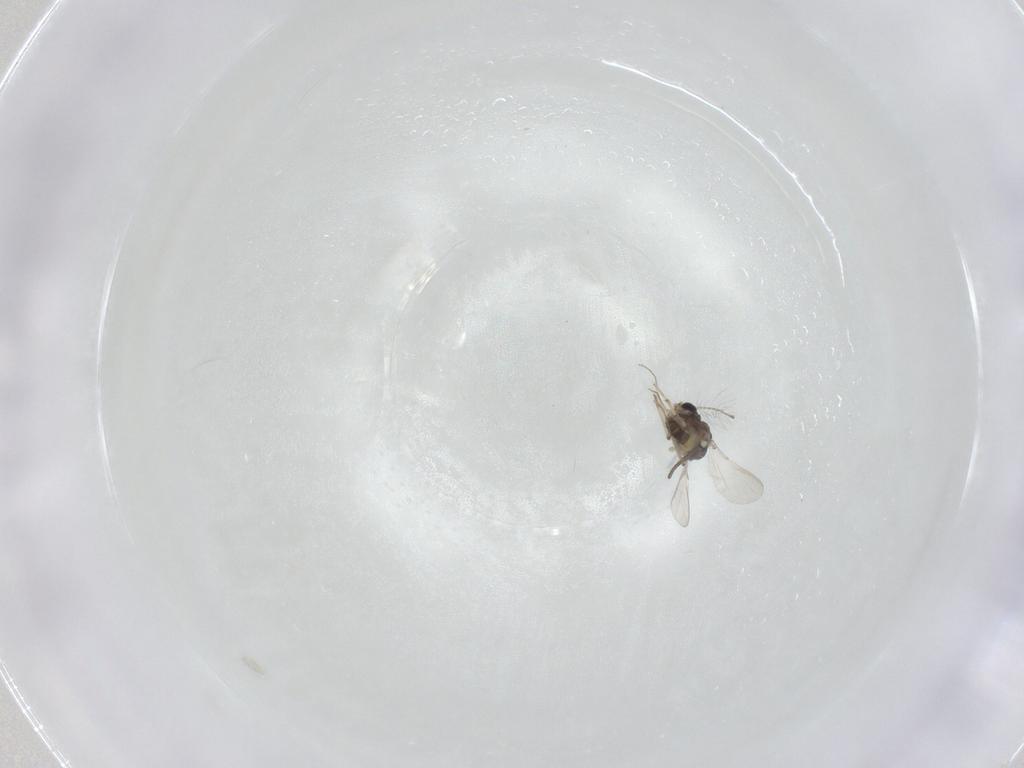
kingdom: Animalia
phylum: Arthropoda
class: Insecta
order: Diptera
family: Chironomidae
